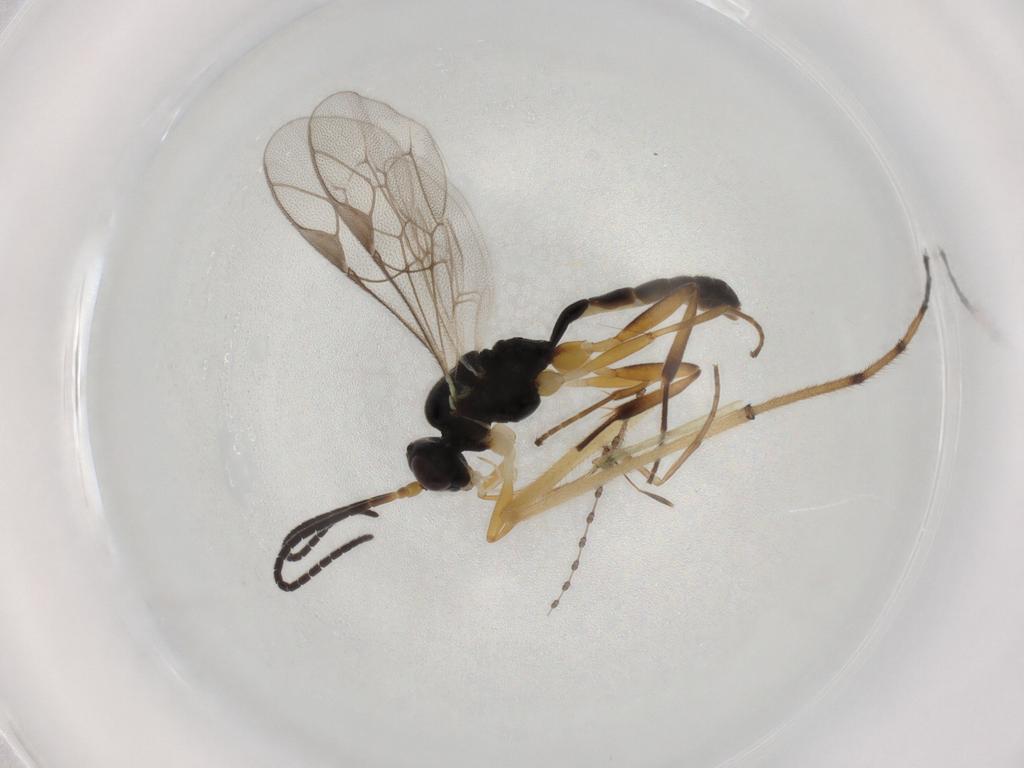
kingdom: Animalia
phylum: Arthropoda
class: Insecta
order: Hymenoptera
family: Ichneumonidae
